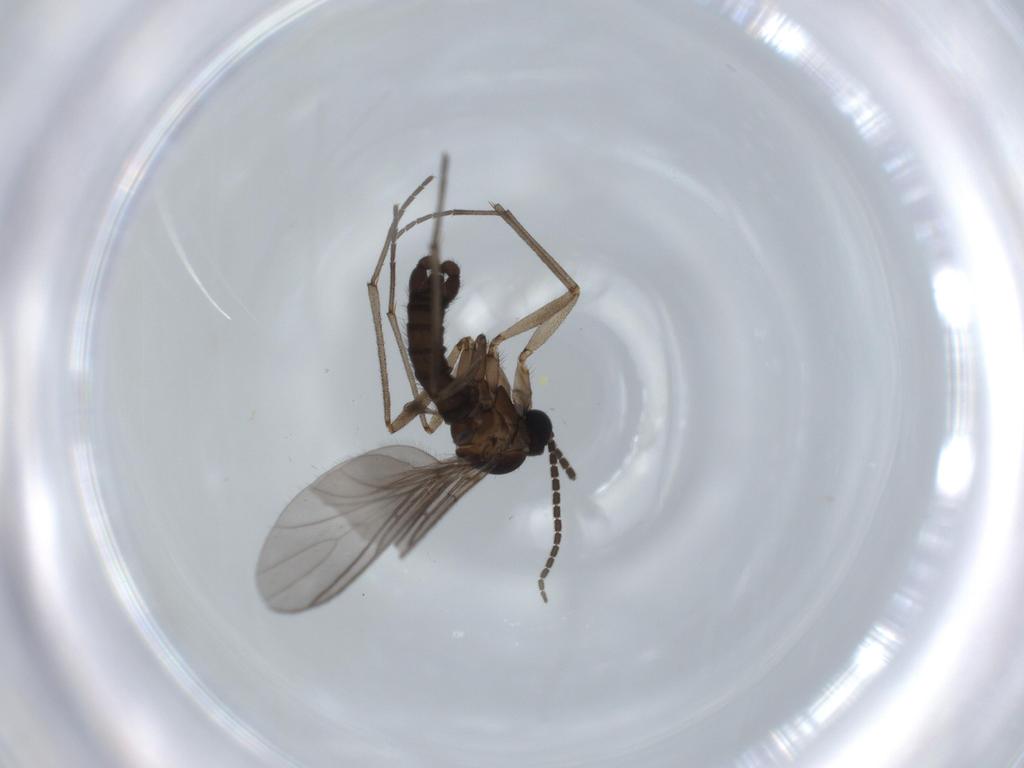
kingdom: Animalia
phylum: Arthropoda
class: Insecta
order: Diptera
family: Sciaridae
